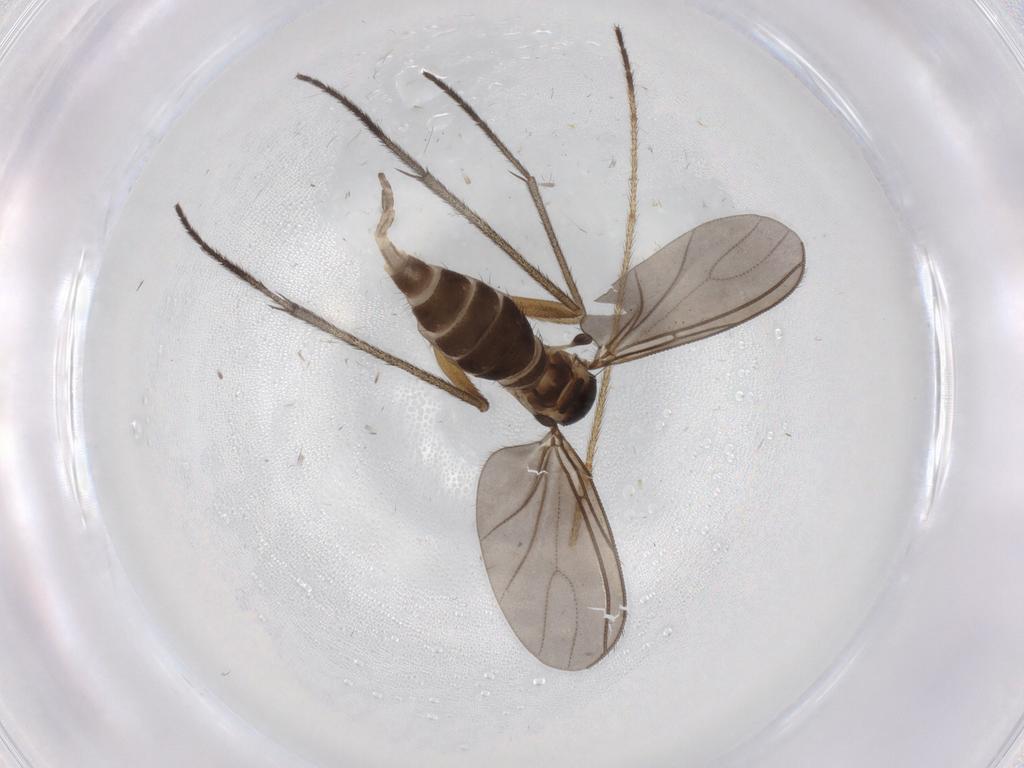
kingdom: Animalia
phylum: Arthropoda
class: Insecta
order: Diptera
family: Sciaridae
